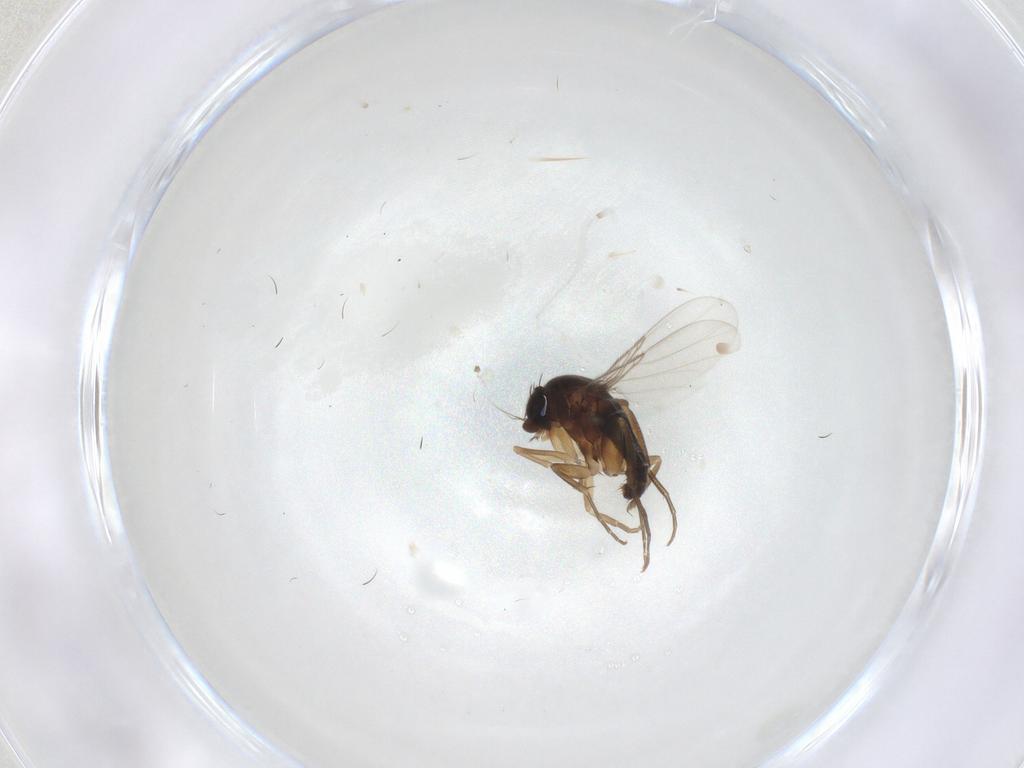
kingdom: Animalia
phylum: Arthropoda
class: Insecta
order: Diptera
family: Phoridae
